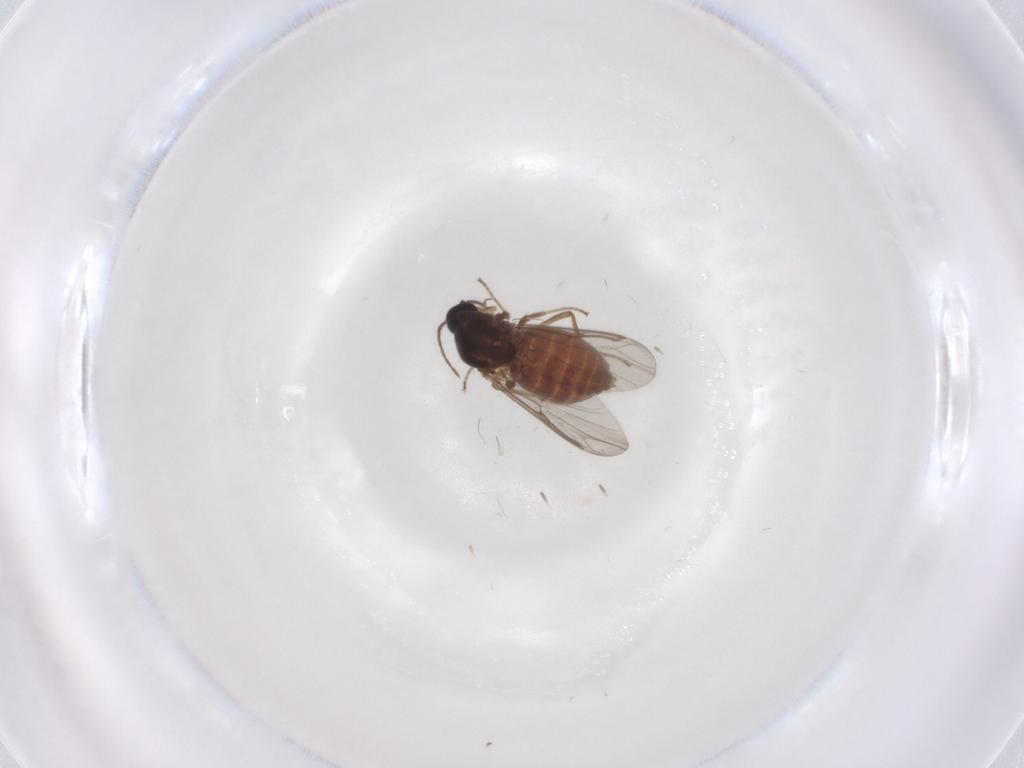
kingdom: Animalia
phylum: Arthropoda
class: Insecta
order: Diptera
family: Ceratopogonidae
